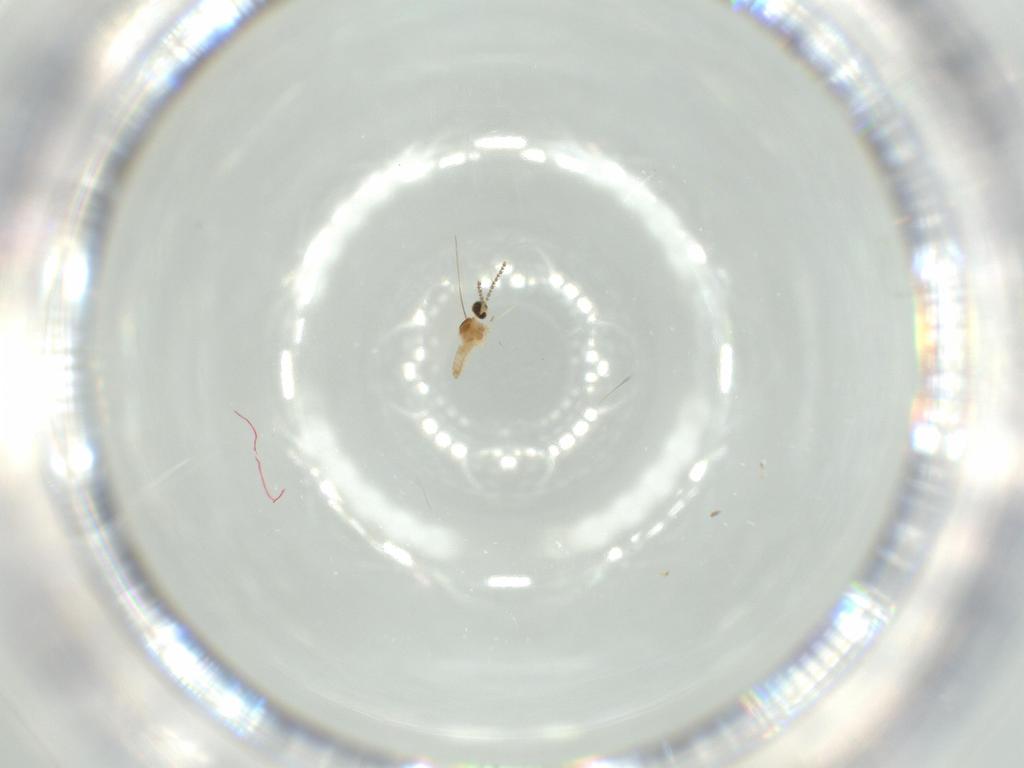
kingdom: Animalia
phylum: Arthropoda
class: Insecta
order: Diptera
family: Cecidomyiidae
